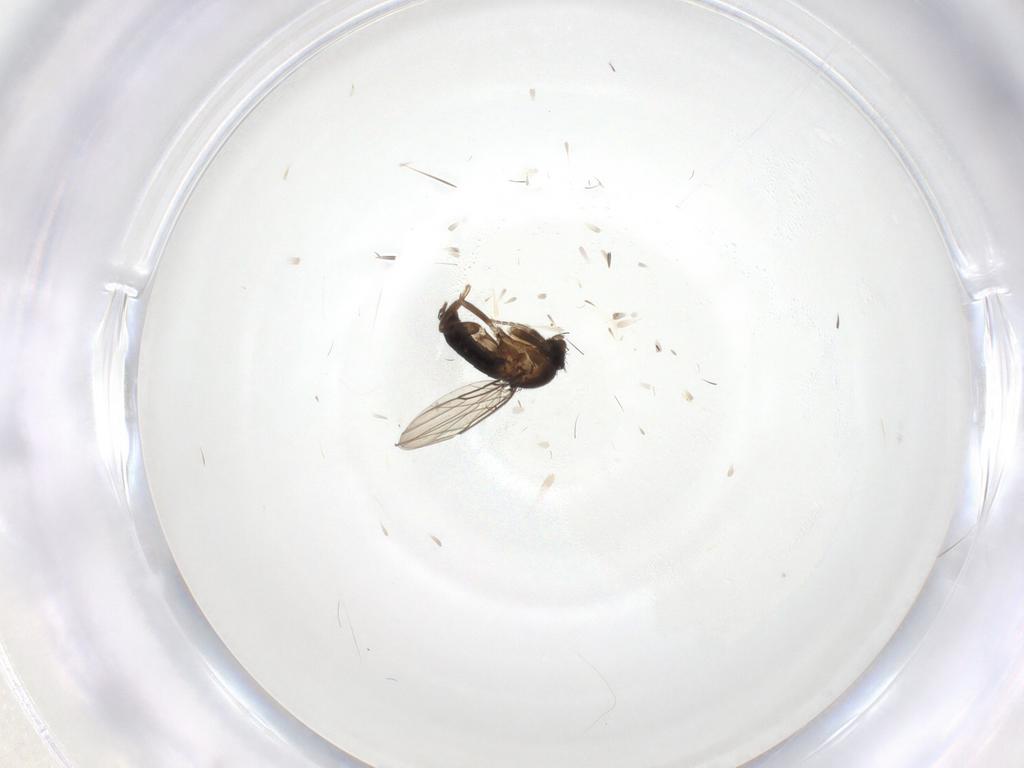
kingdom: Animalia
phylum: Arthropoda
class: Insecta
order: Diptera
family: Phoridae
